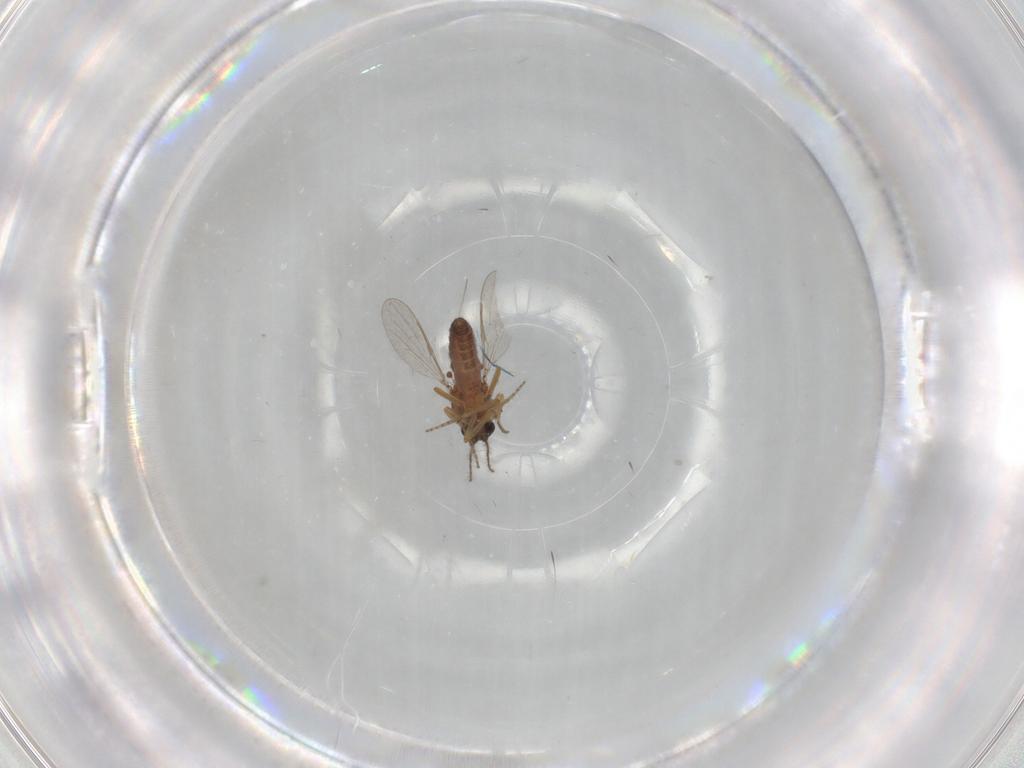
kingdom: Animalia
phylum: Arthropoda
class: Insecta
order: Diptera
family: Ceratopogonidae
